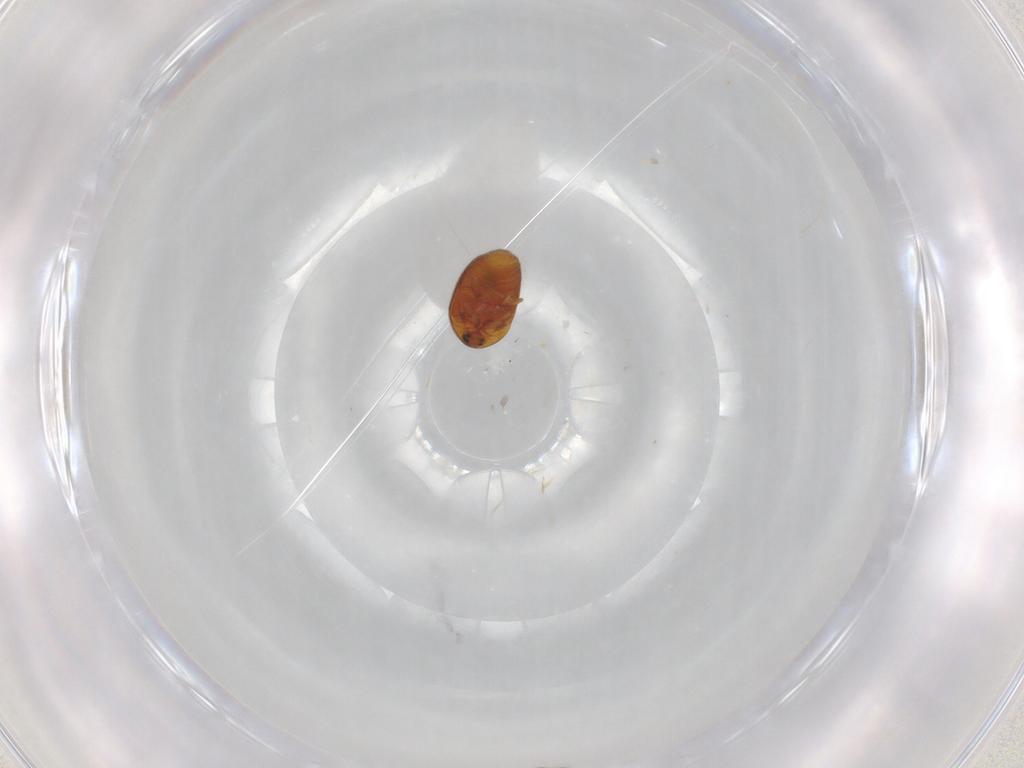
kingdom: Animalia
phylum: Arthropoda
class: Insecta
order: Coleoptera
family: Corylophidae
